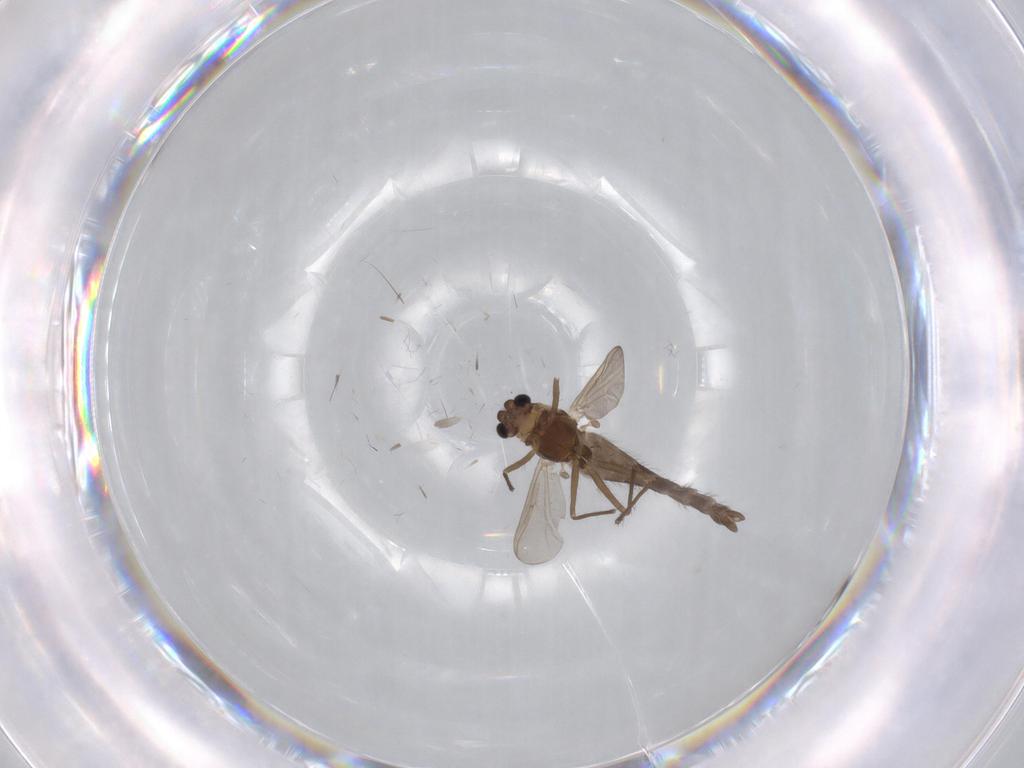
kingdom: Animalia
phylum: Arthropoda
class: Insecta
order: Diptera
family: Chironomidae
